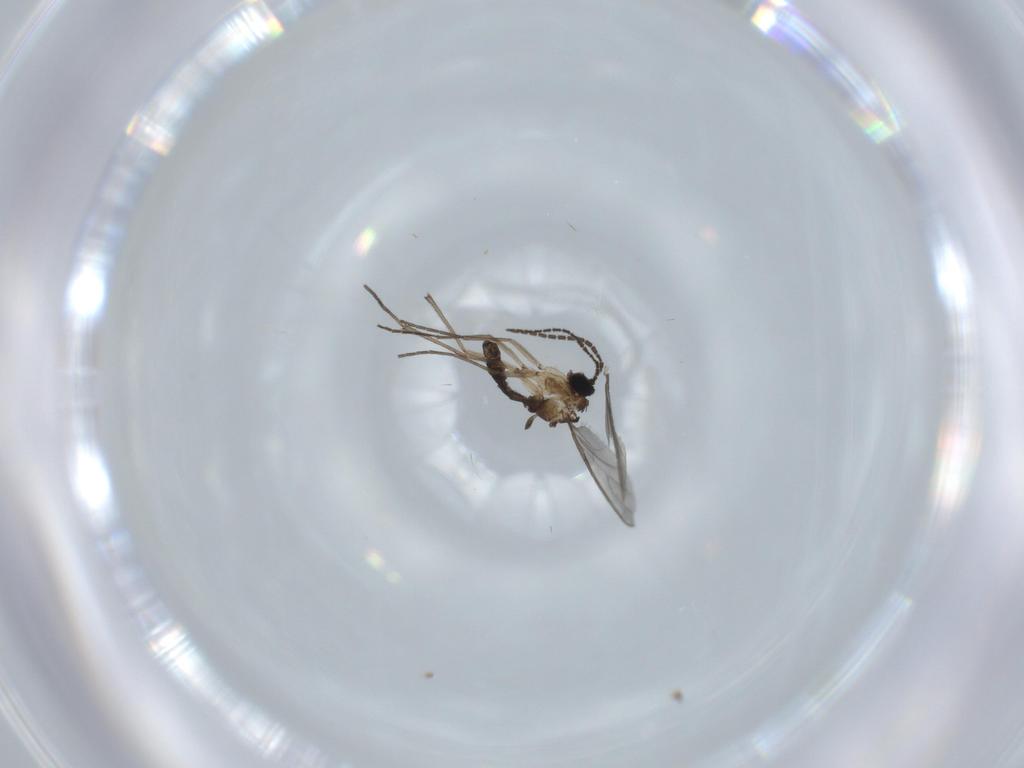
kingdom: Animalia
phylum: Arthropoda
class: Insecta
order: Diptera
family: Sciaridae
